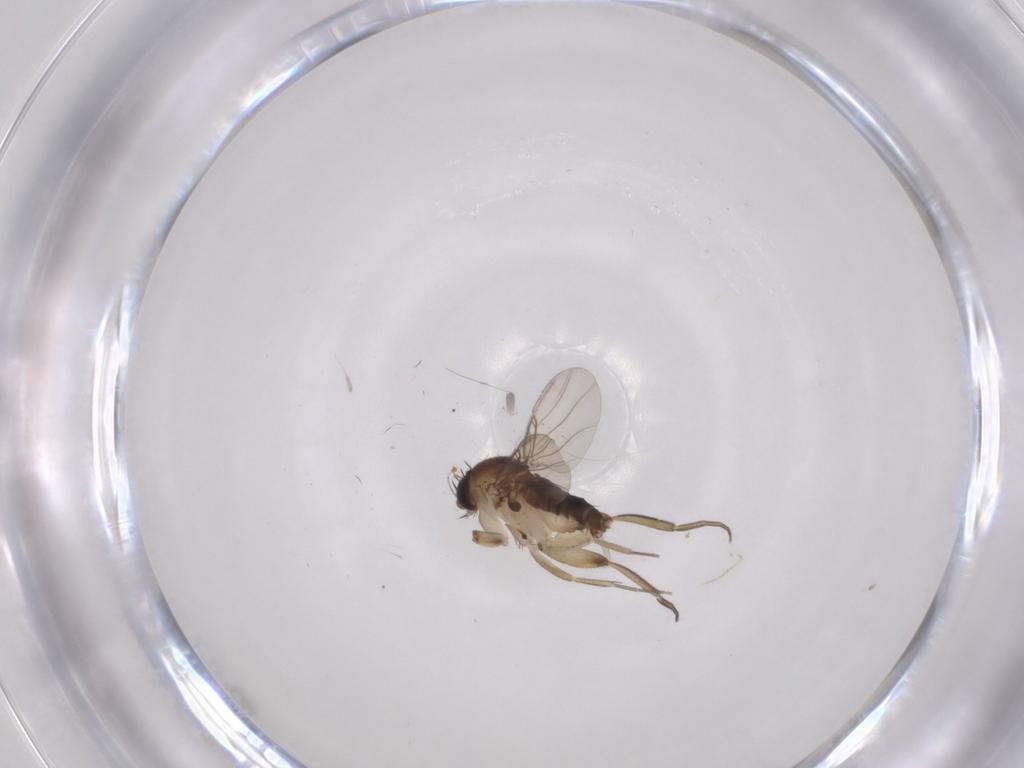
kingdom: Animalia
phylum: Arthropoda
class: Insecta
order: Diptera
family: Phoridae
